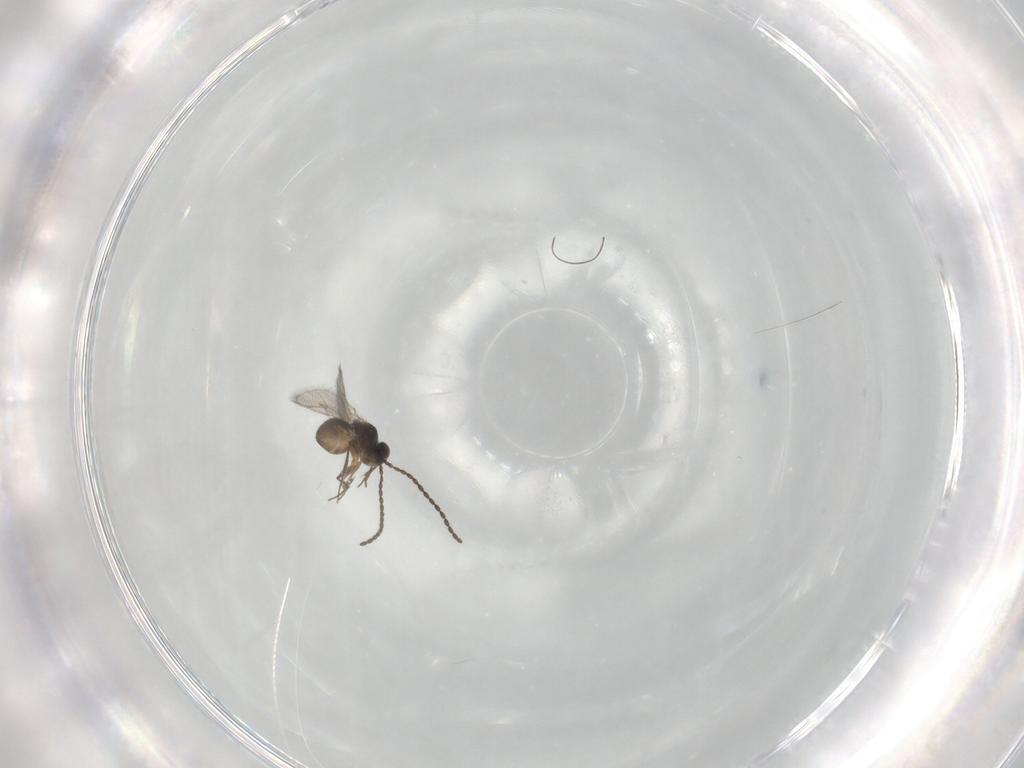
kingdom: Animalia
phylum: Arthropoda
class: Insecta
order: Hymenoptera
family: Figitidae
